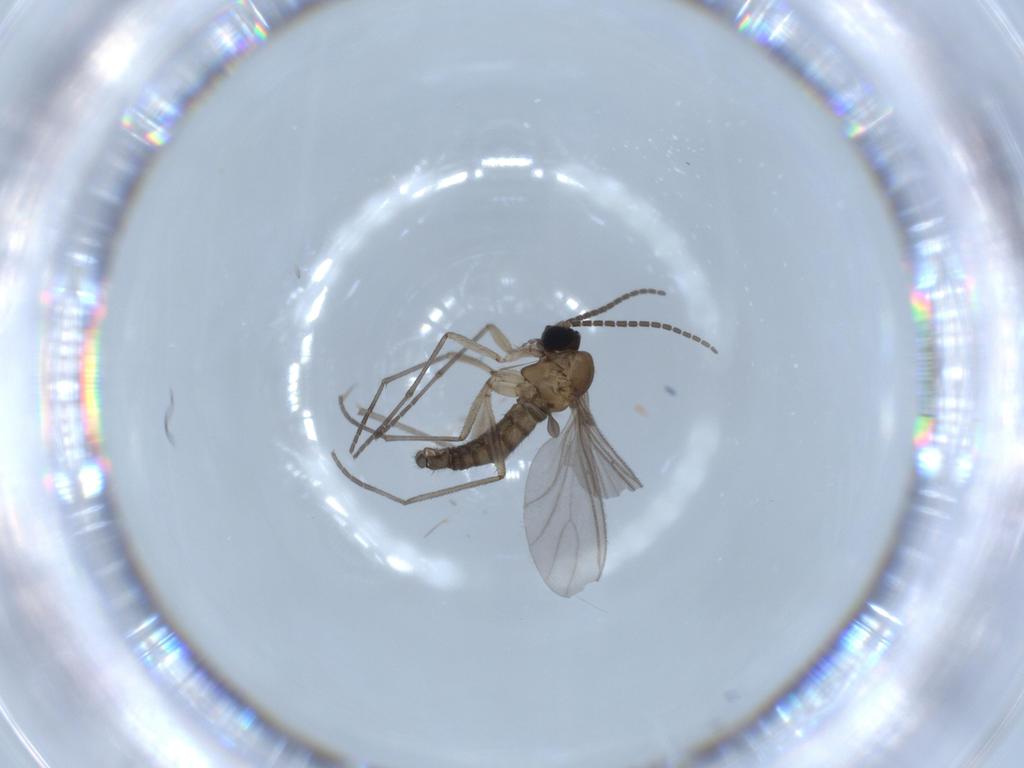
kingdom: Animalia
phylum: Arthropoda
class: Insecta
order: Diptera
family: Sciaridae
